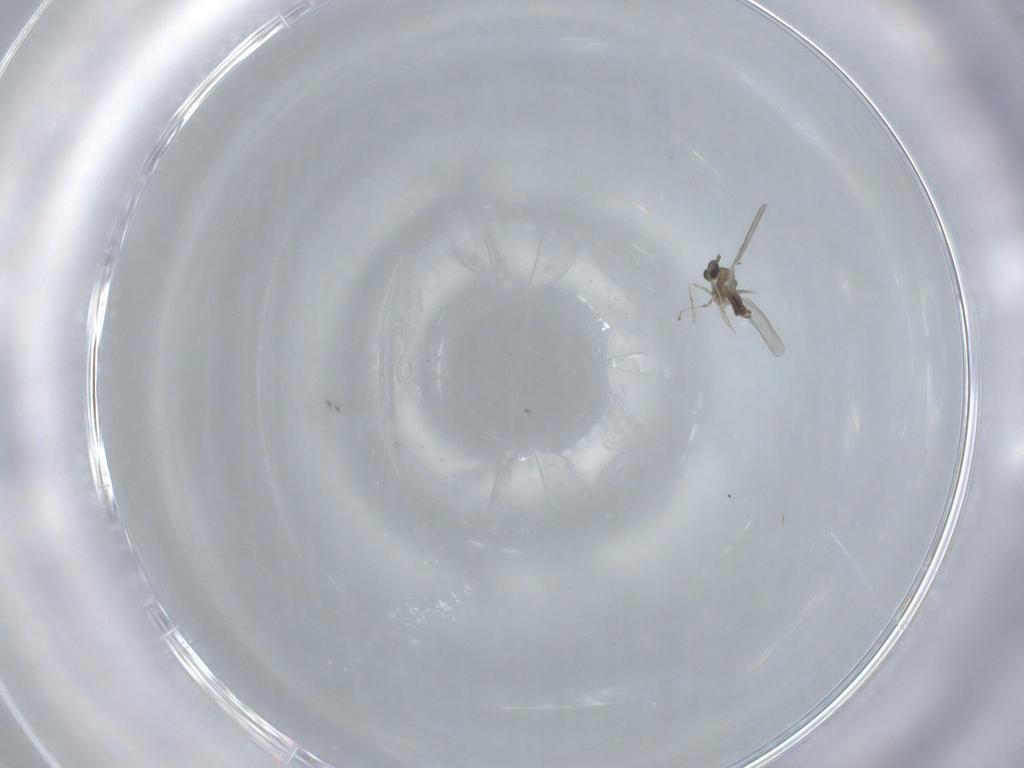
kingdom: Animalia
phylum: Arthropoda
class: Insecta
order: Diptera
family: Cecidomyiidae
